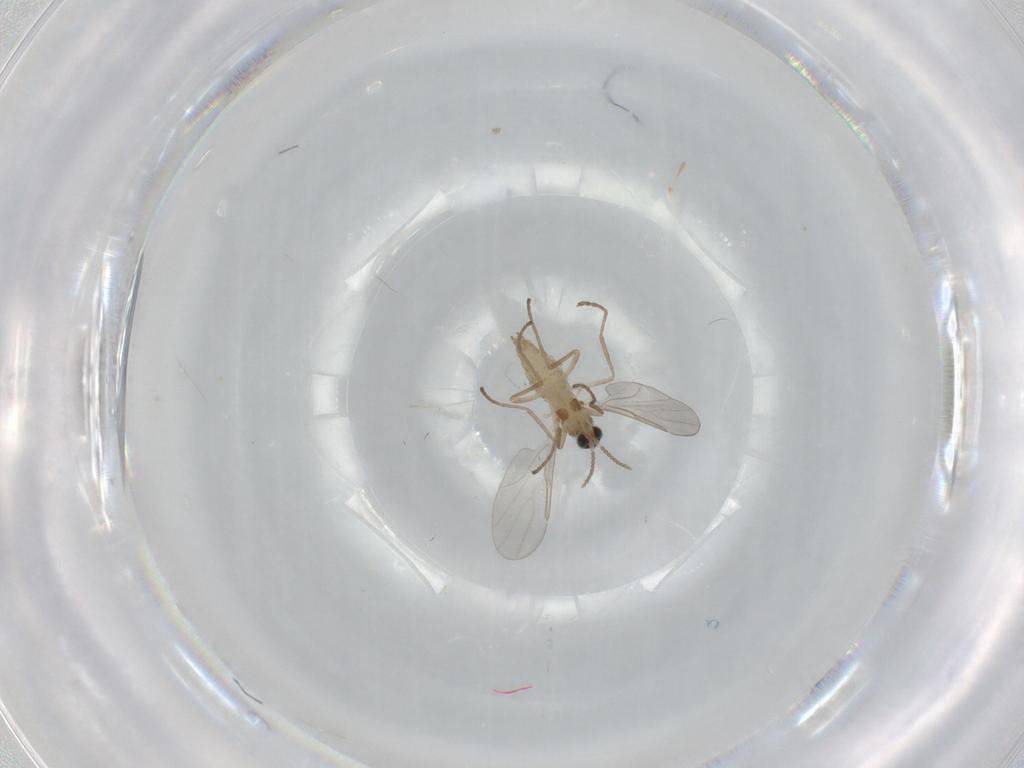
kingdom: Animalia
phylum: Arthropoda
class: Insecta
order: Diptera
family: Cecidomyiidae
